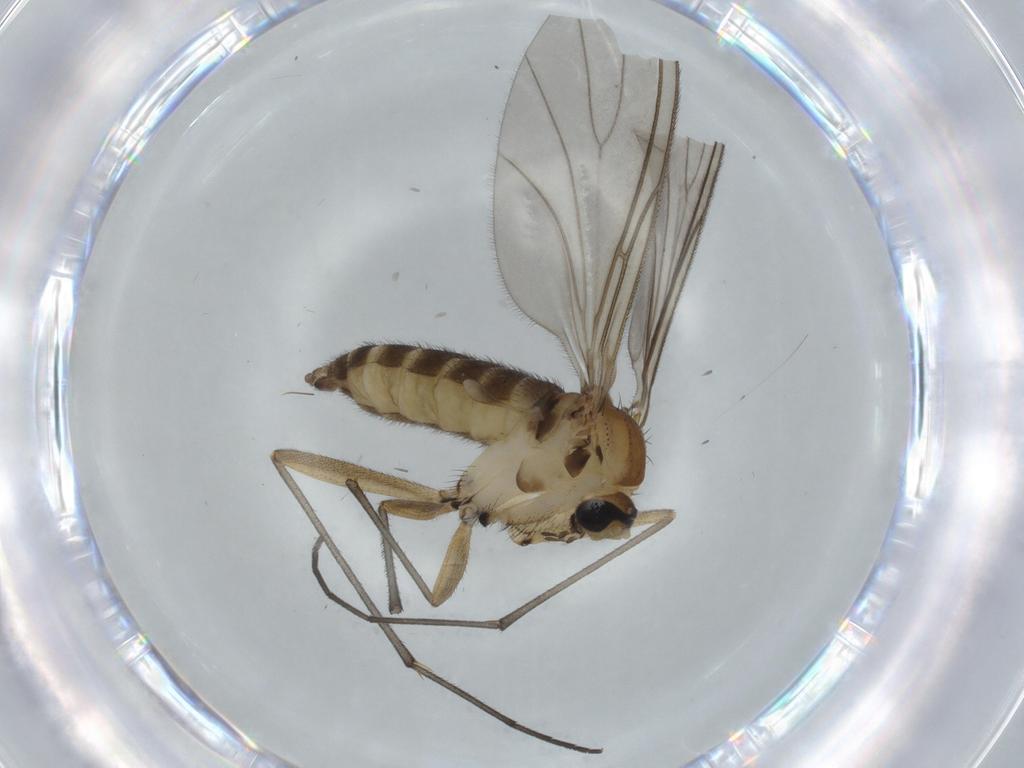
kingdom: Animalia
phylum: Arthropoda
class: Insecta
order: Diptera
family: Sciaridae
